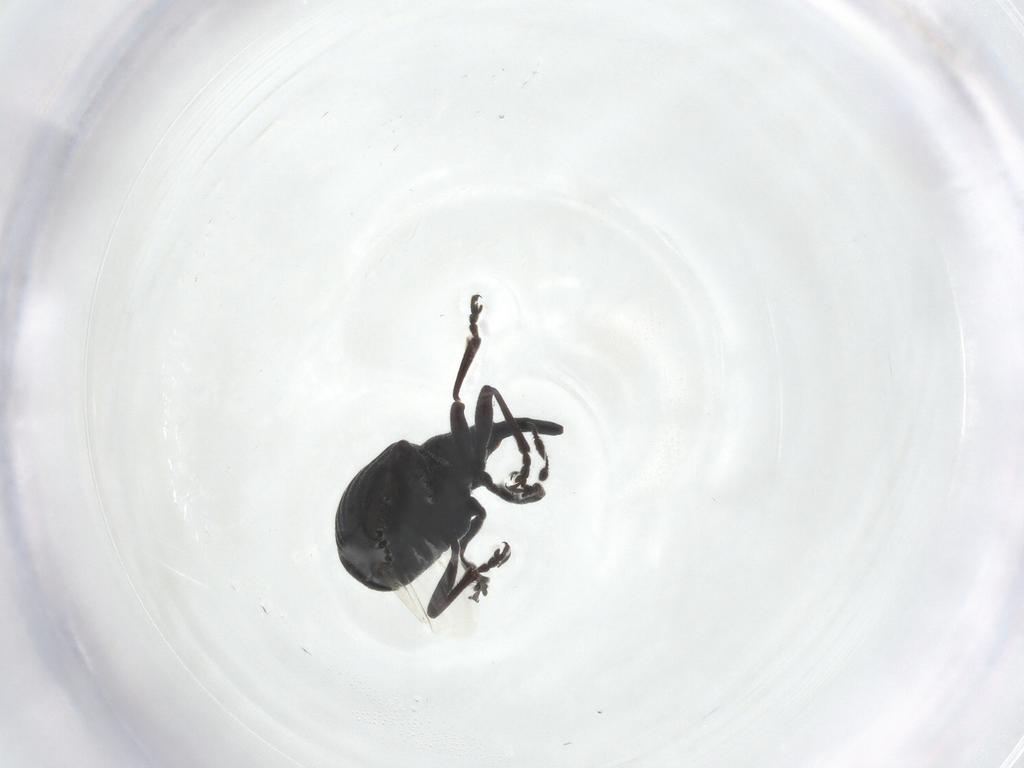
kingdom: Animalia
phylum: Arthropoda
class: Insecta
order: Coleoptera
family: Brentidae
